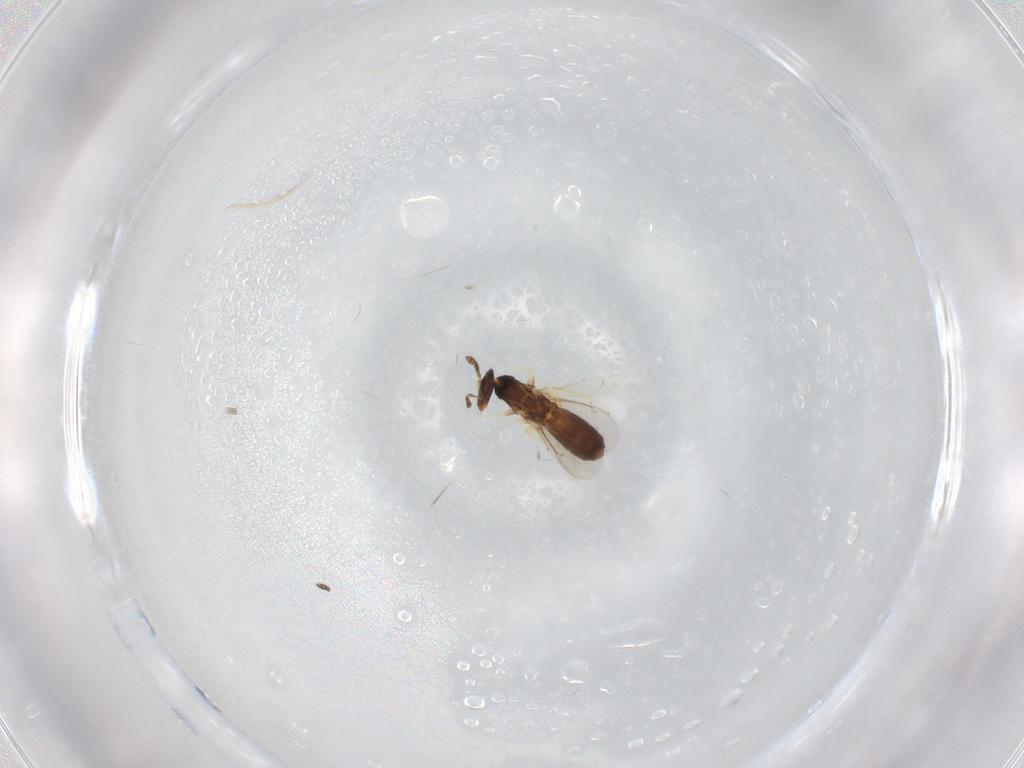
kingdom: Animalia
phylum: Arthropoda
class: Insecta
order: Hymenoptera
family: Eulophidae
